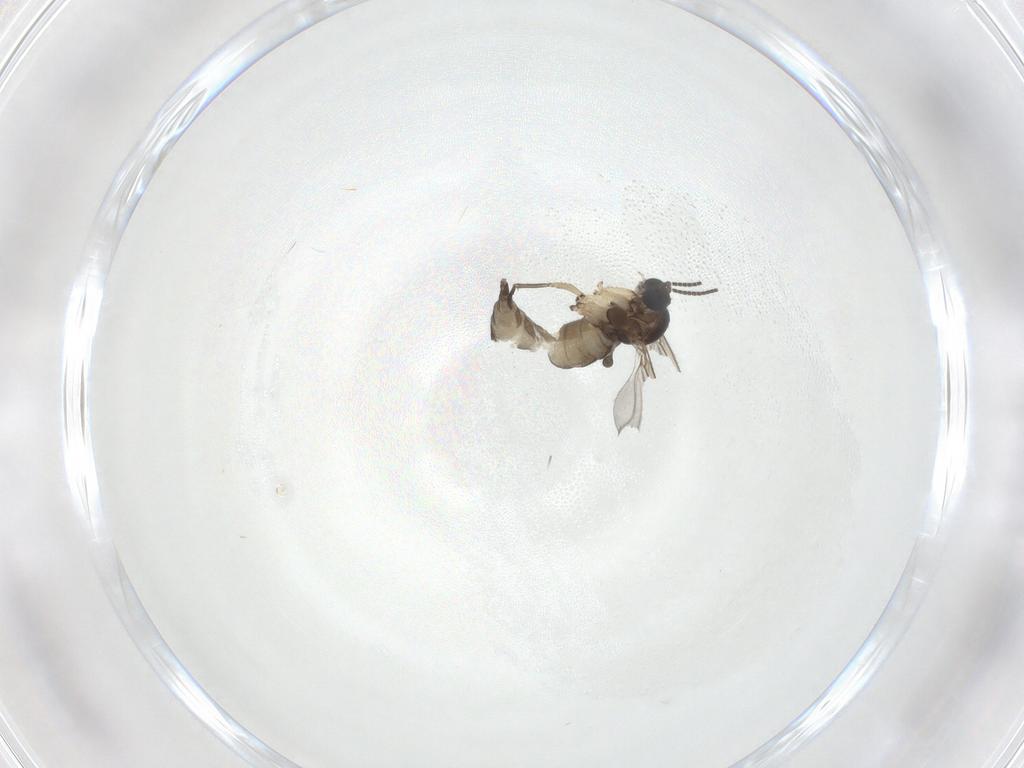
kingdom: Animalia
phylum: Arthropoda
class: Insecta
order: Diptera
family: Sciaridae
